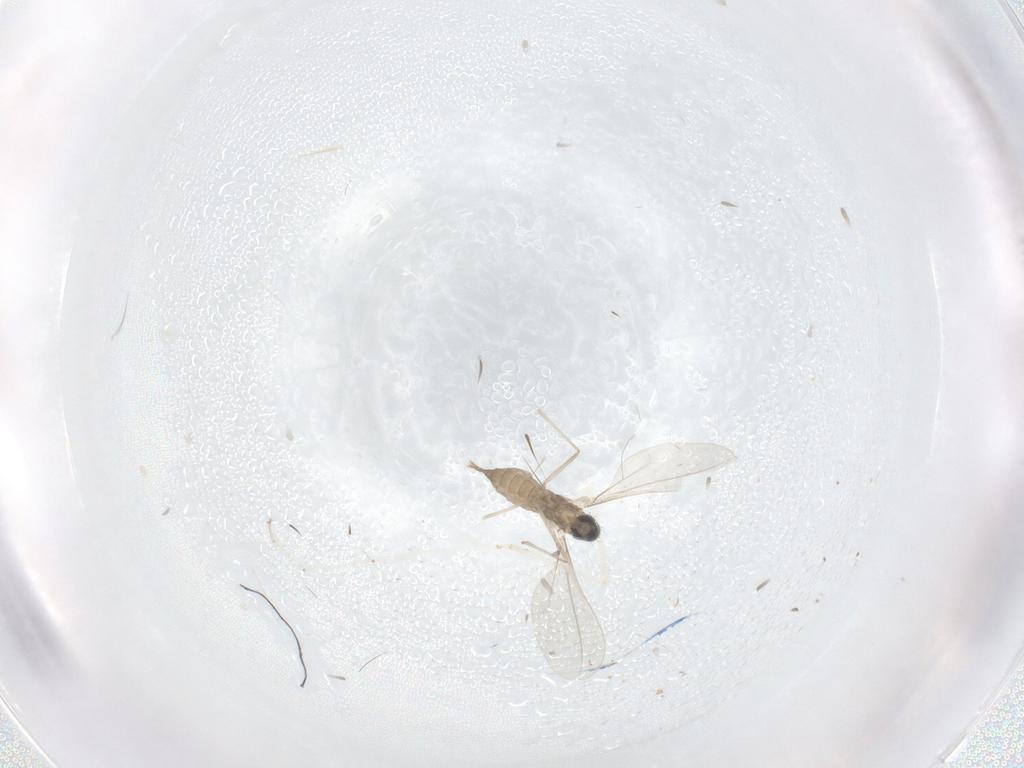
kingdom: Animalia
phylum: Arthropoda
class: Insecta
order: Diptera
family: Cecidomyiidae
